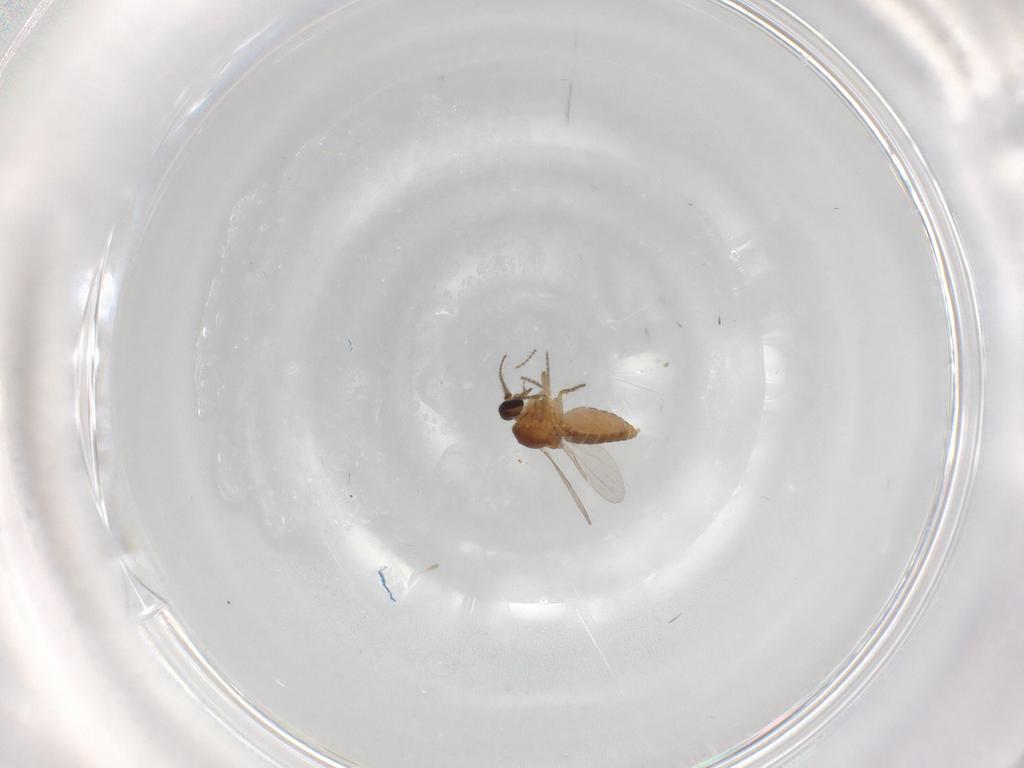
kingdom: Animalia
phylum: Arthropoda
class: Insecta
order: Diptera
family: Ceratopogonidae
